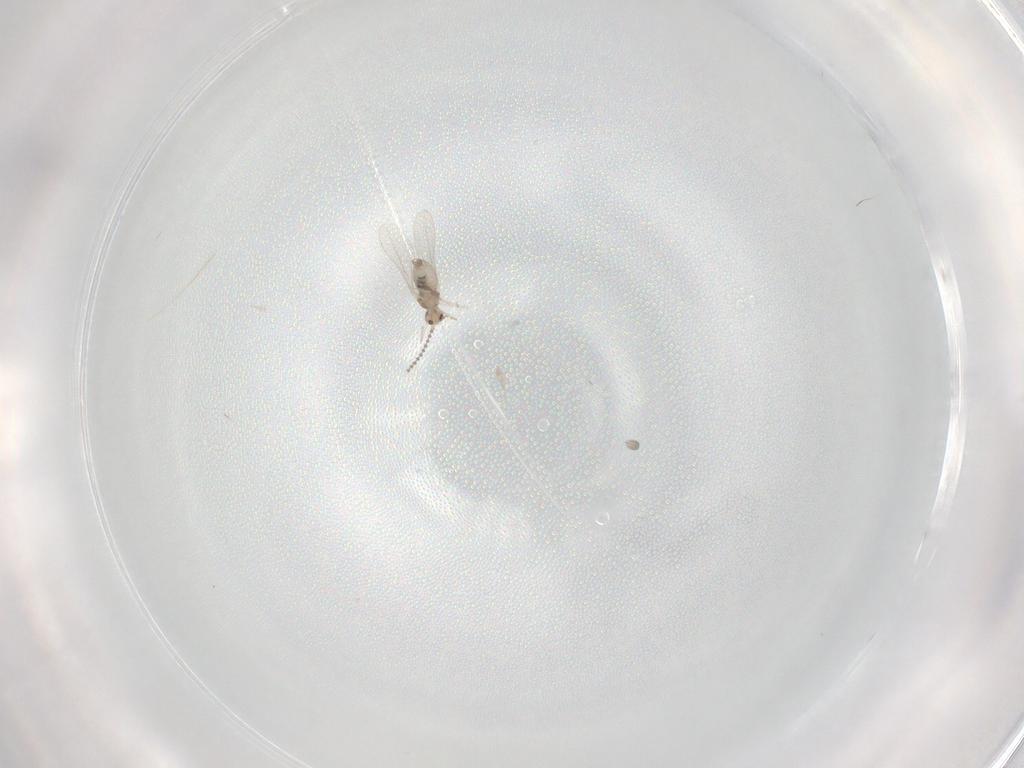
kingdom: Animalia
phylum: Arthropoda
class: Insecta
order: Diptera
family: Cecidomyiidae
